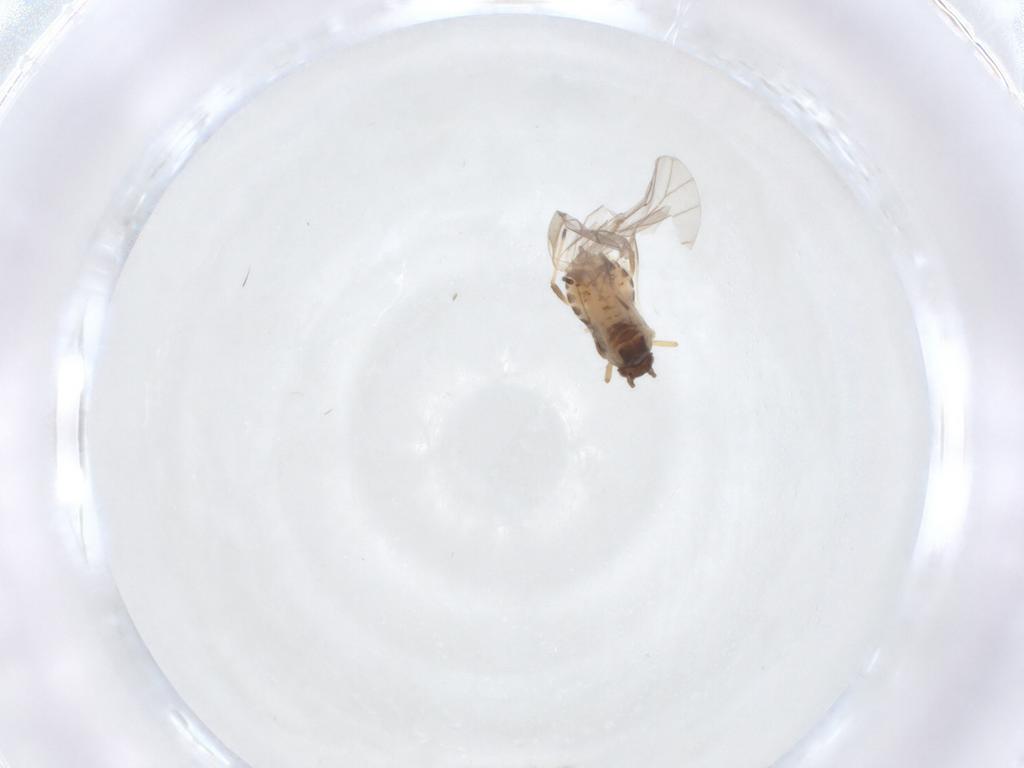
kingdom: Animalia
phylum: Arthropoda
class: Insecta
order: Hemiptera
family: Aphididae
